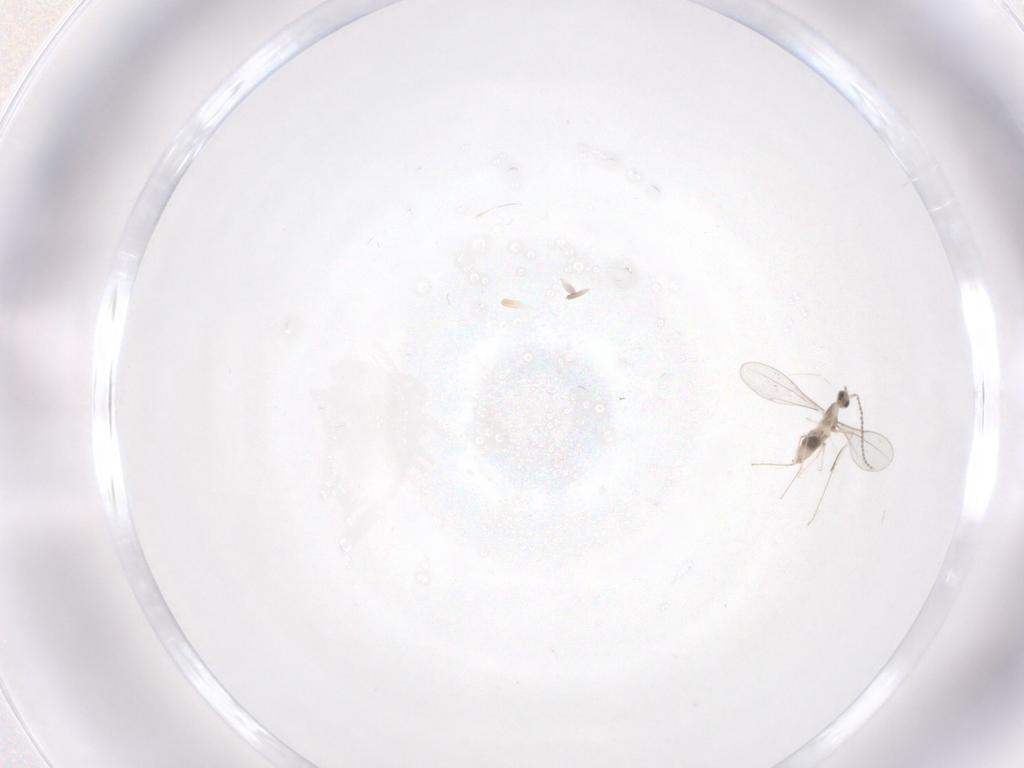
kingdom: Animalia
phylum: Arthropoda
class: Insecta
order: Diptera
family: Cecidomyiidae
